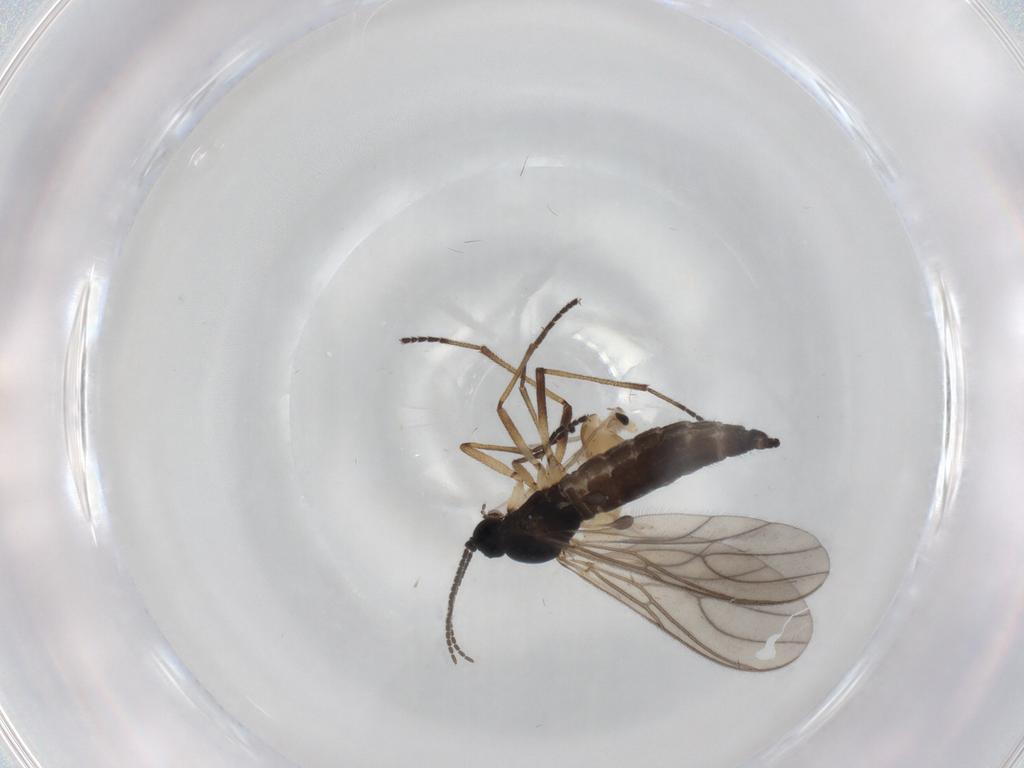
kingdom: Animalia
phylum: Arthropoda
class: Insecta
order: Diptera
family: Chironomidae
